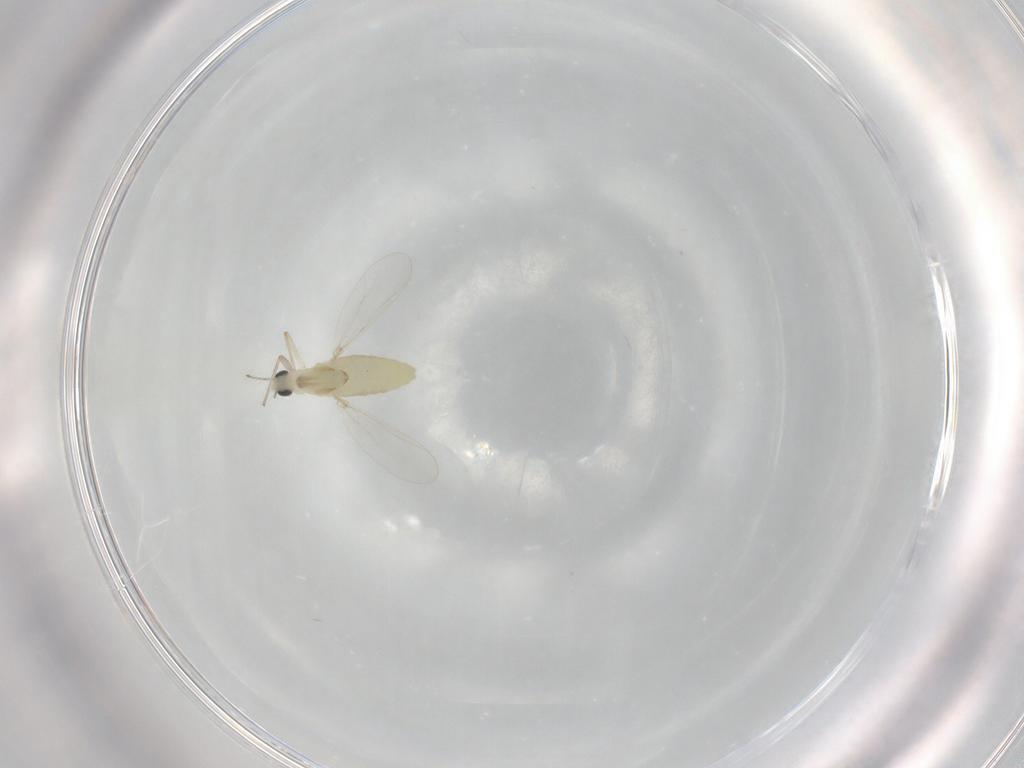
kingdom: Animalia
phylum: Arthropoda
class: Insecta
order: Diptera
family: Chironomidae
